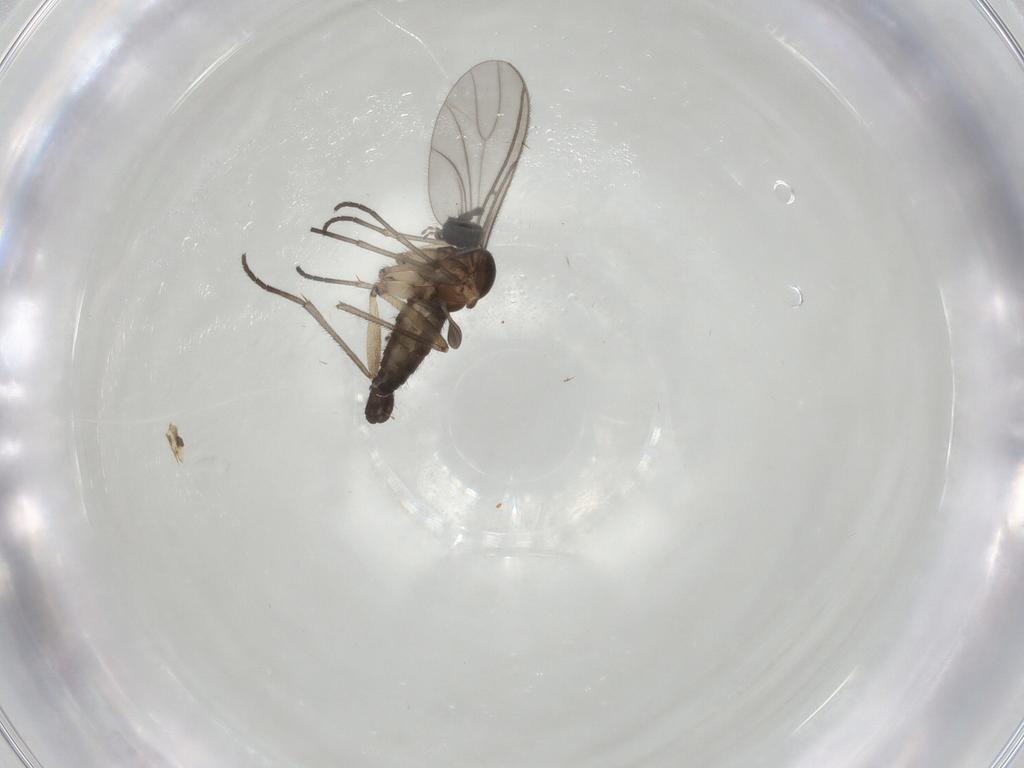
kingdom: Animalia
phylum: Arthropoda
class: Insecta
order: Diptera
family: Sciaridae
